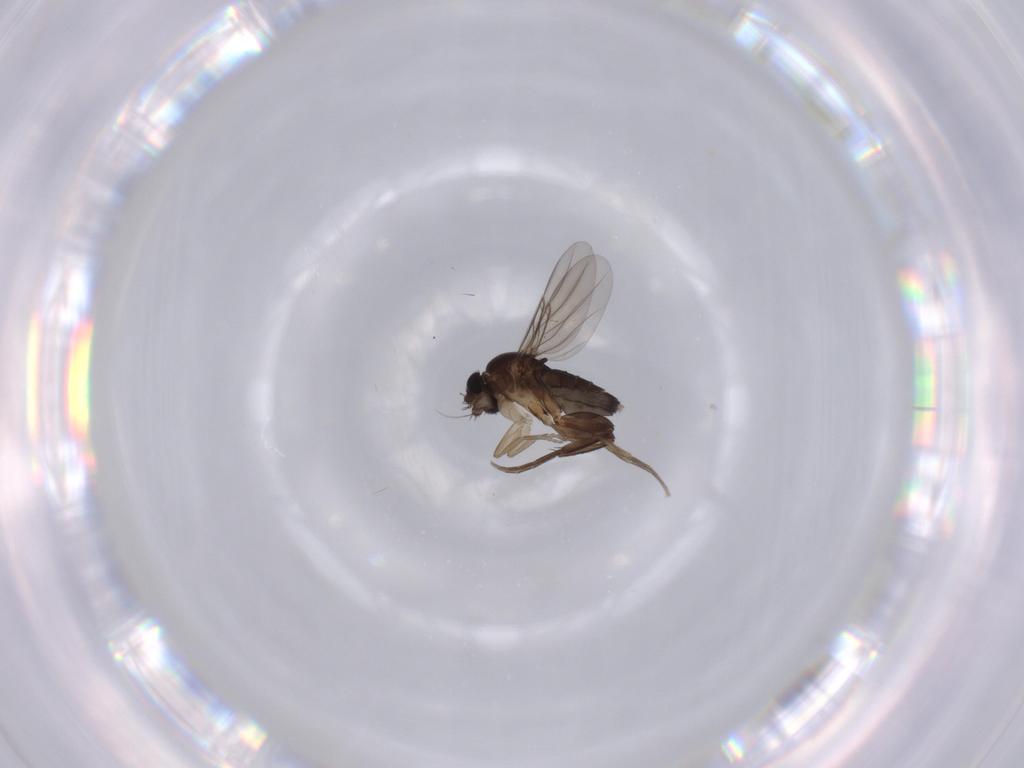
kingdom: Animalia
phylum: Arthropoda
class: Insecta
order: Diptera
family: Phoridae
